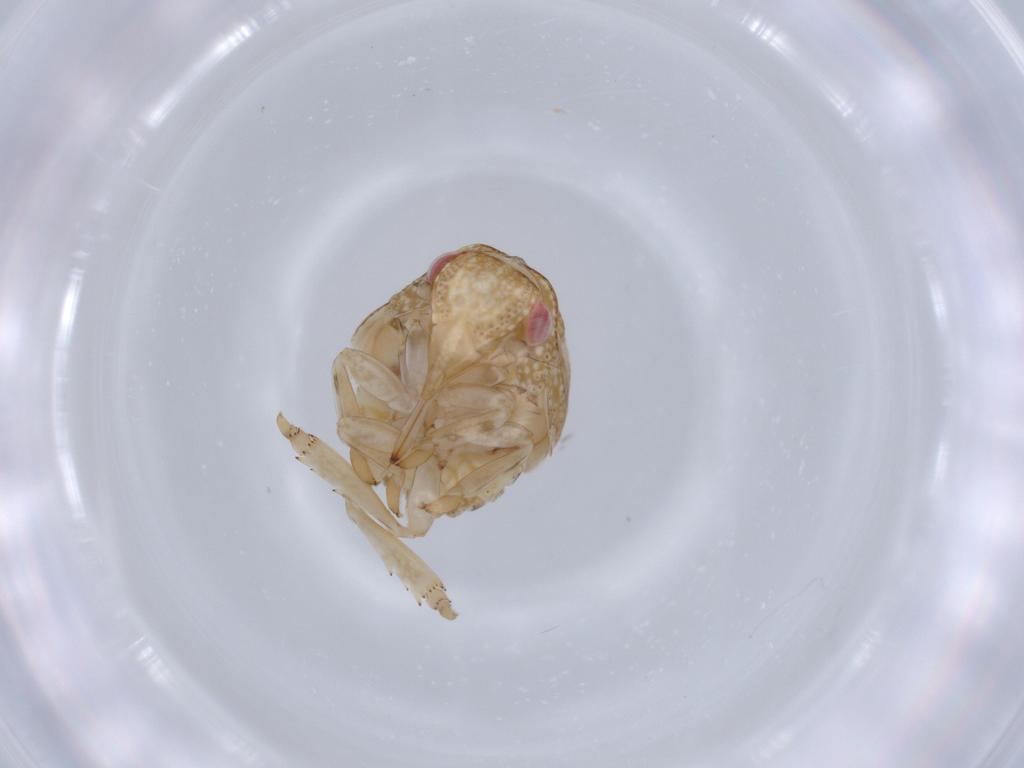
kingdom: Animalia
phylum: Arthropoda
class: Insecta
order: Hemiptera
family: Acanaloniidae
